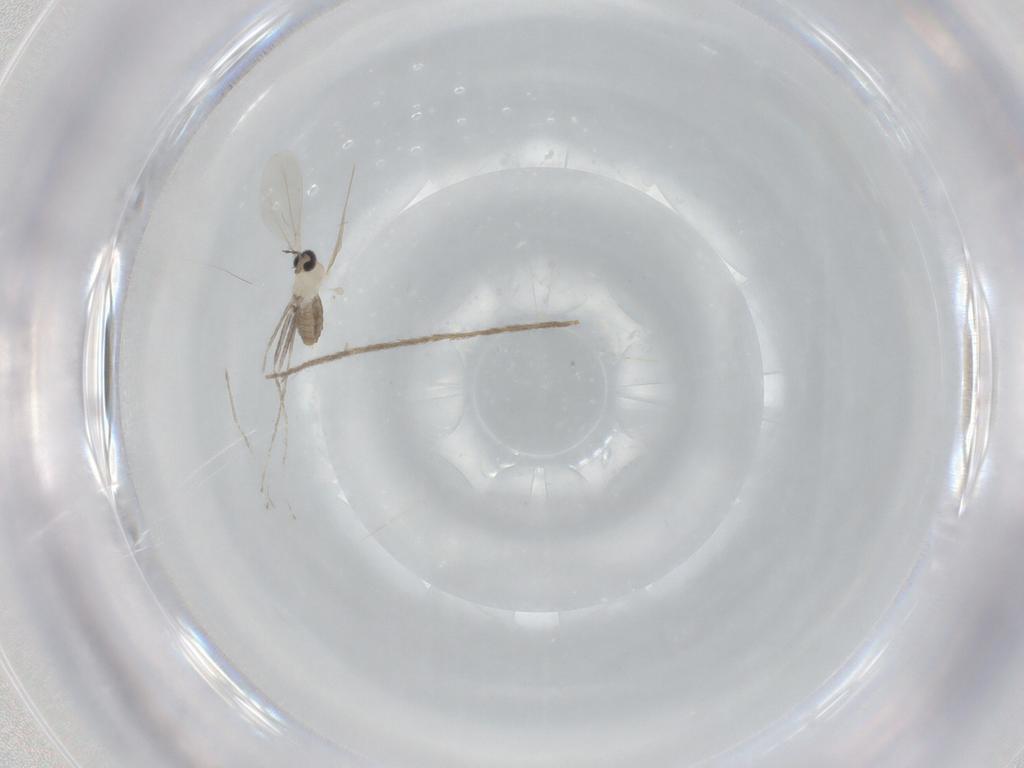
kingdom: Animalia
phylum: Arthropoda
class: Insecta
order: Diptera
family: Cecidomyiidae
